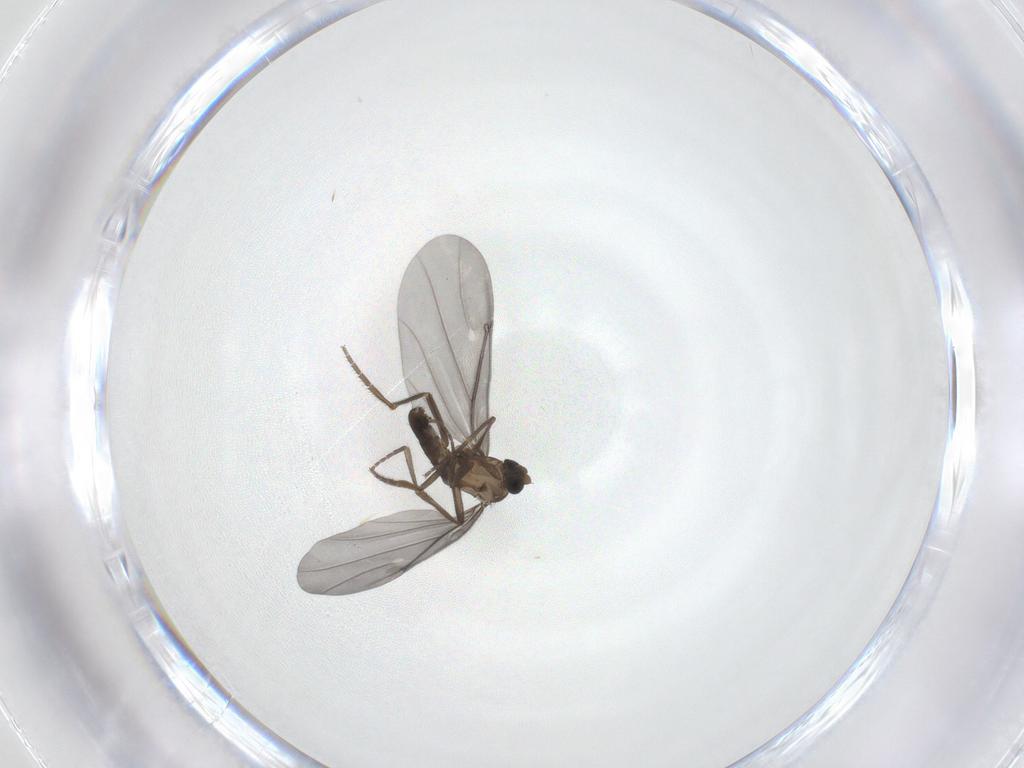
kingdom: Animalia
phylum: Arthropoda
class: Insecta
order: Diptera
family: Phoridae
